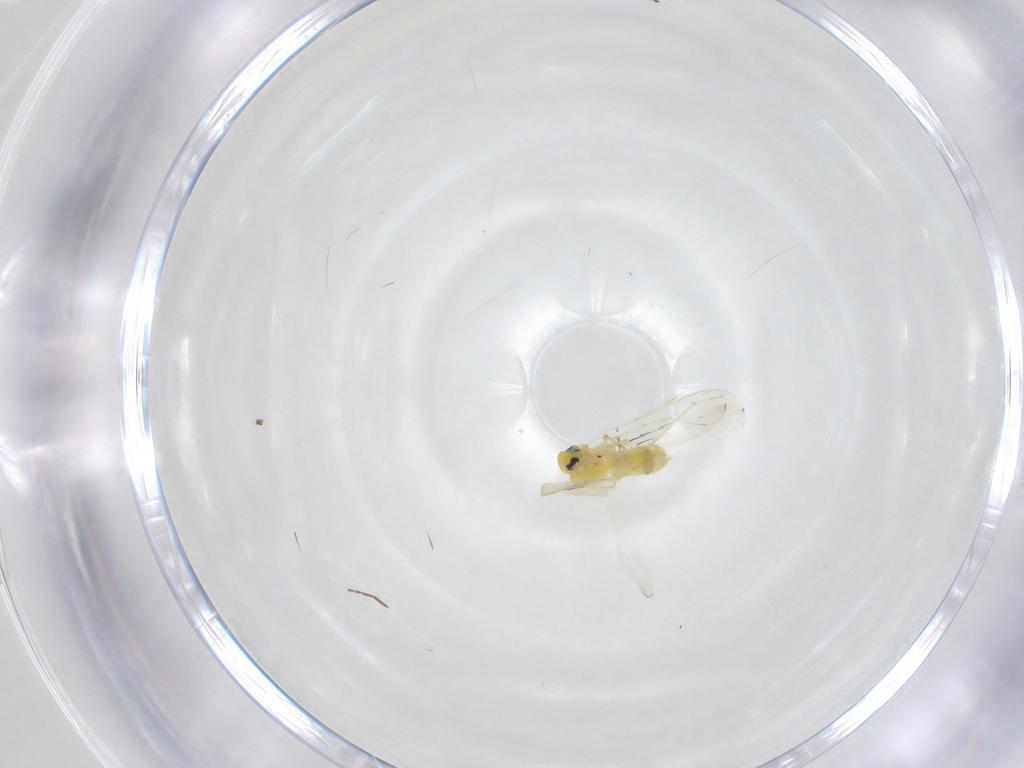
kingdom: Animalia
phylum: Arthropoda
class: Insecta
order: Hemiptera
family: Aleyrodidae
